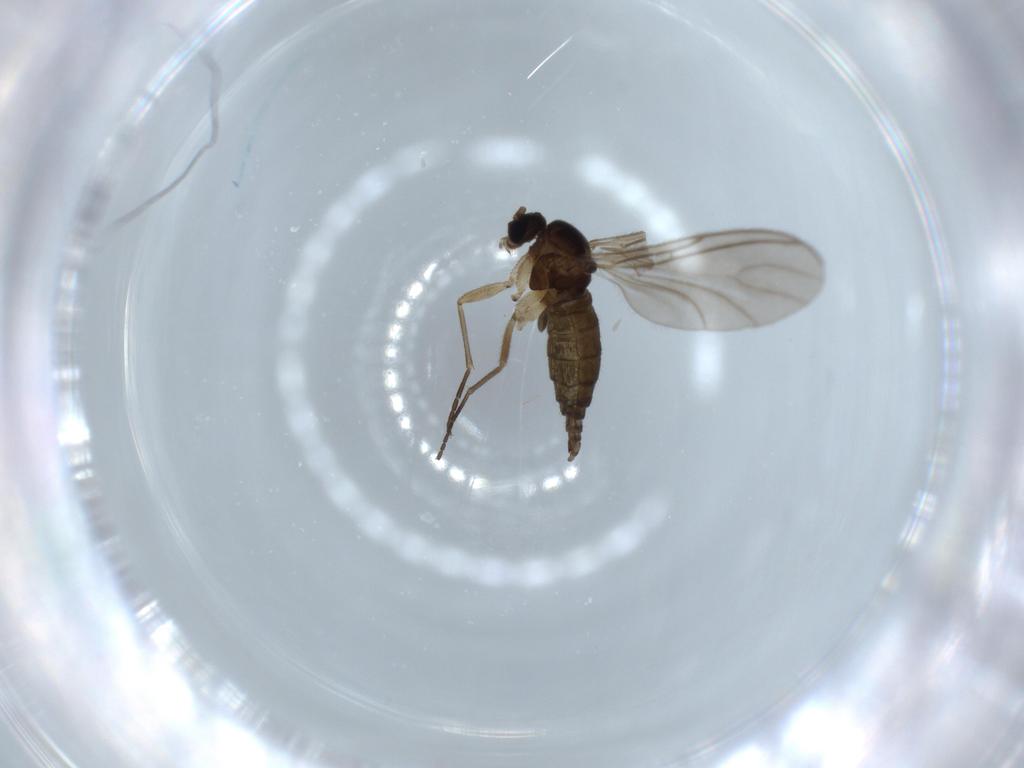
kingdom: Animalia
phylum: Arthropoda
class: Insecta
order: Diptera
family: Sciaridae
